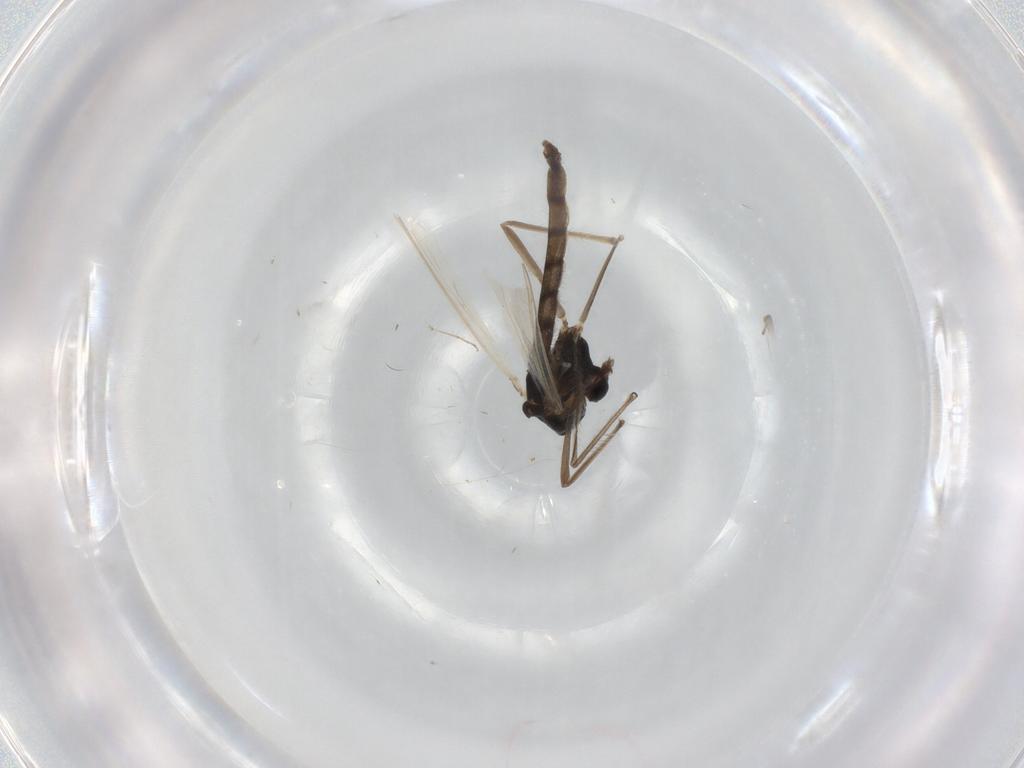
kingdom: Animalia
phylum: Arthropoda
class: Insecta
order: Diptera
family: Chironomidae
